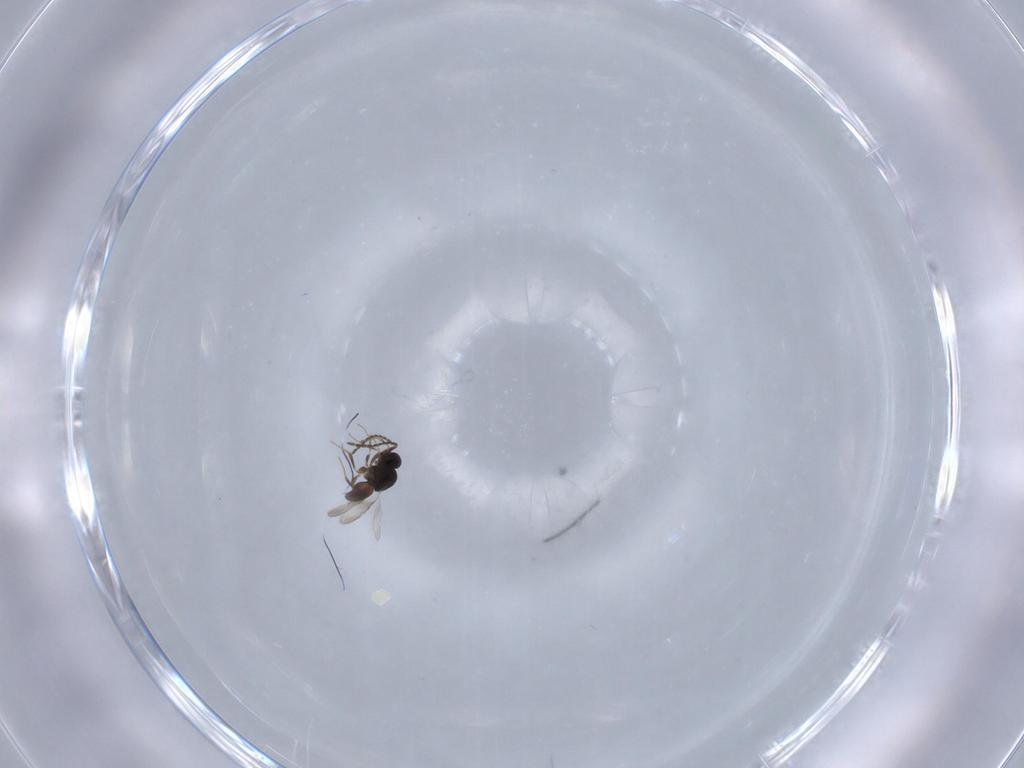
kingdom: Animalia
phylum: Arthropoda
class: Insecta
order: Hymenoptera
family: Ceraphronidae
